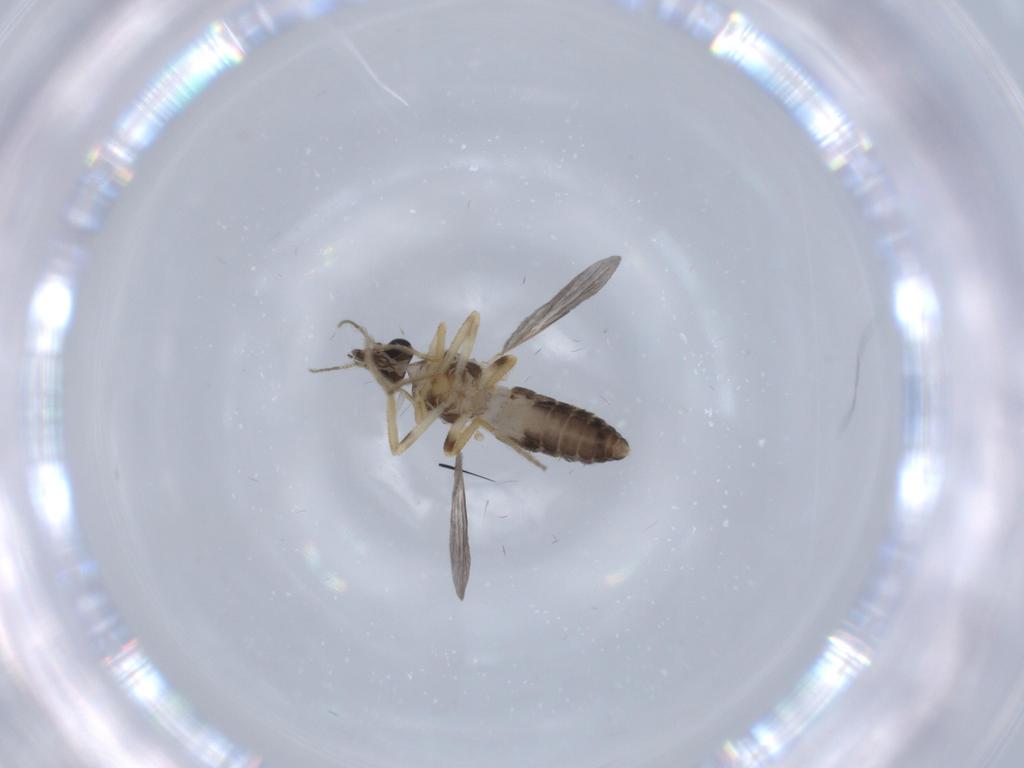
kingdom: Animalia
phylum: Arthropoda
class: Insecta
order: Diptera
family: Ceratopogonidae
